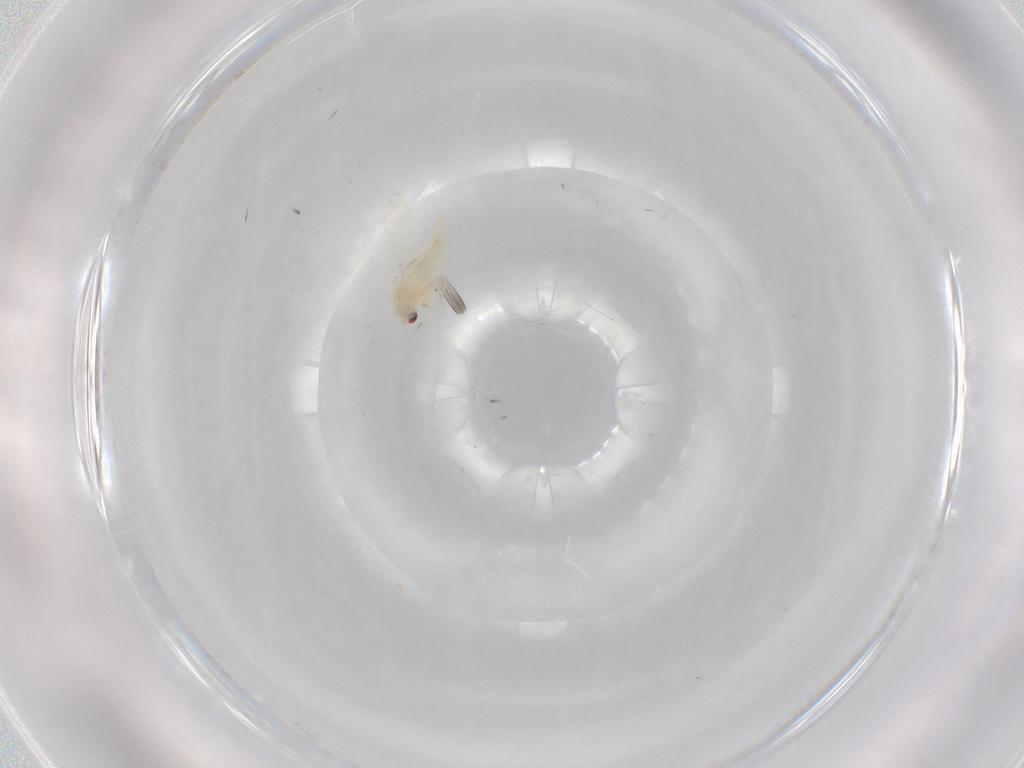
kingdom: Animalia
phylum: Arthropoda
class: Insecta
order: Hemiptera
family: Aleyrodidae
